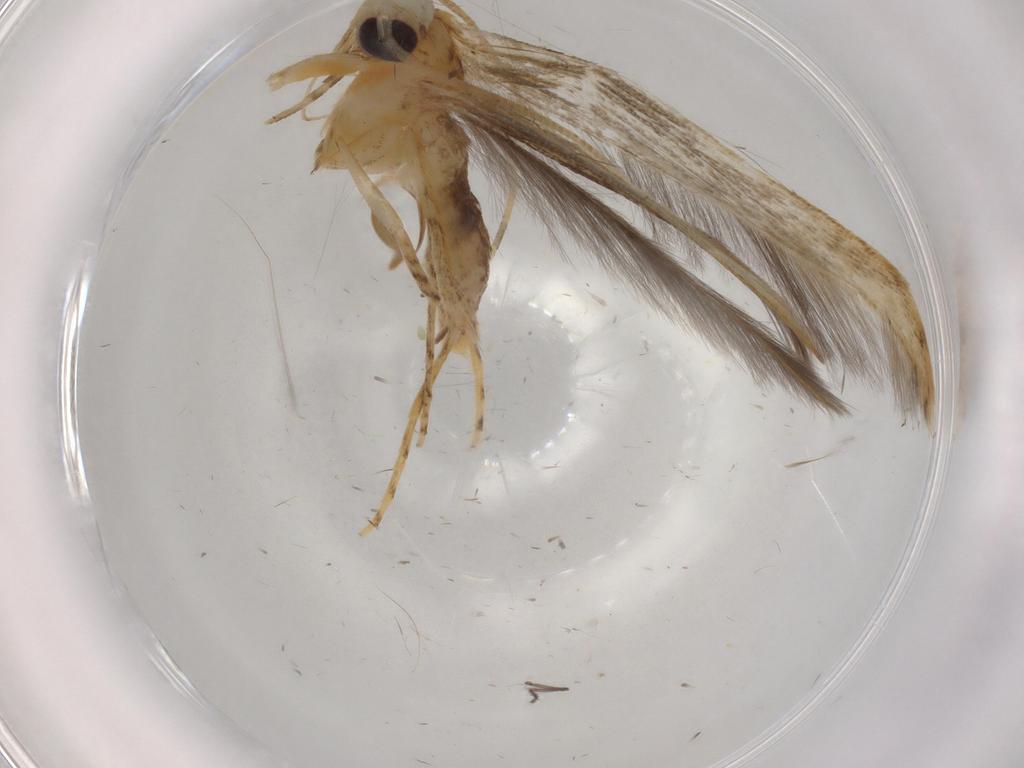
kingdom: Animalia
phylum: Arthropoda
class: Insecta
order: Lepidoptera
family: Batrachedridae
